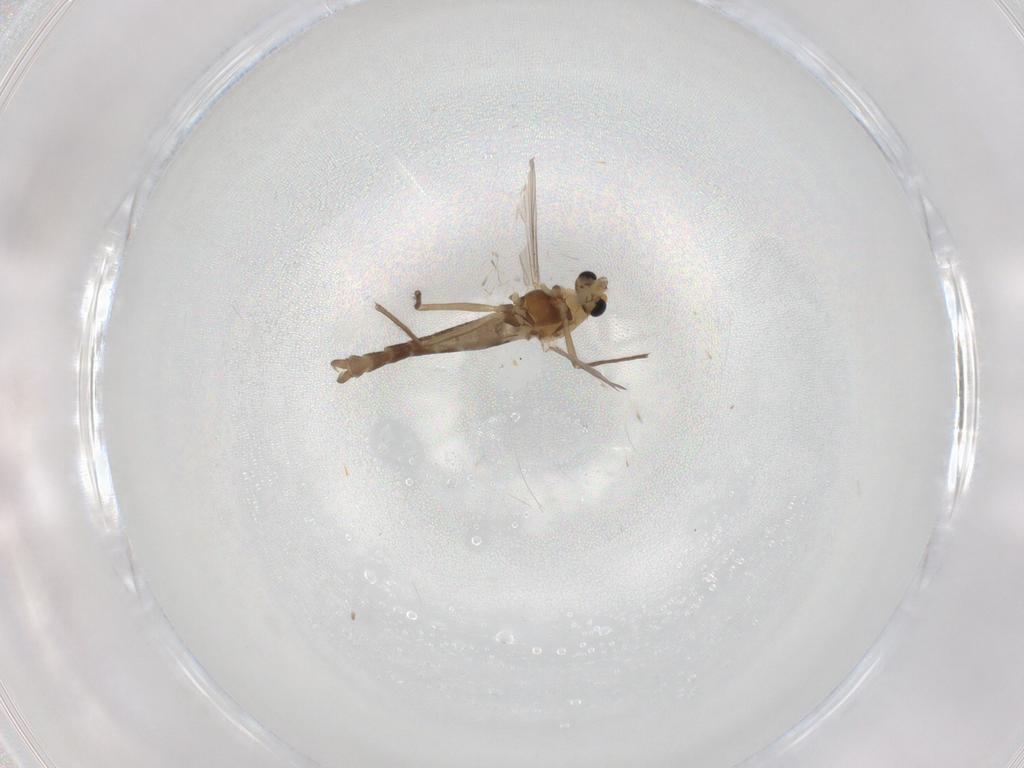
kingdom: Animalia
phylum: Arthropoda
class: Insecta
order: Diptera
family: Chironomidae
